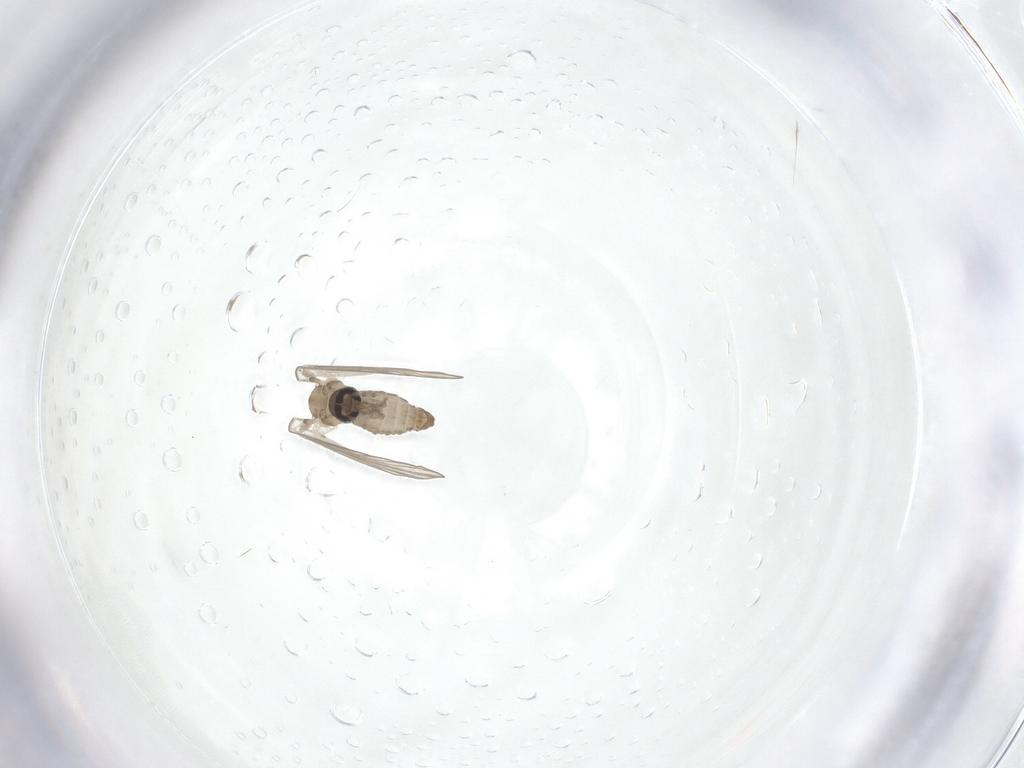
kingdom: Animalia
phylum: Arthropoda
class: Insecta
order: Diptera
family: Psychodidae
